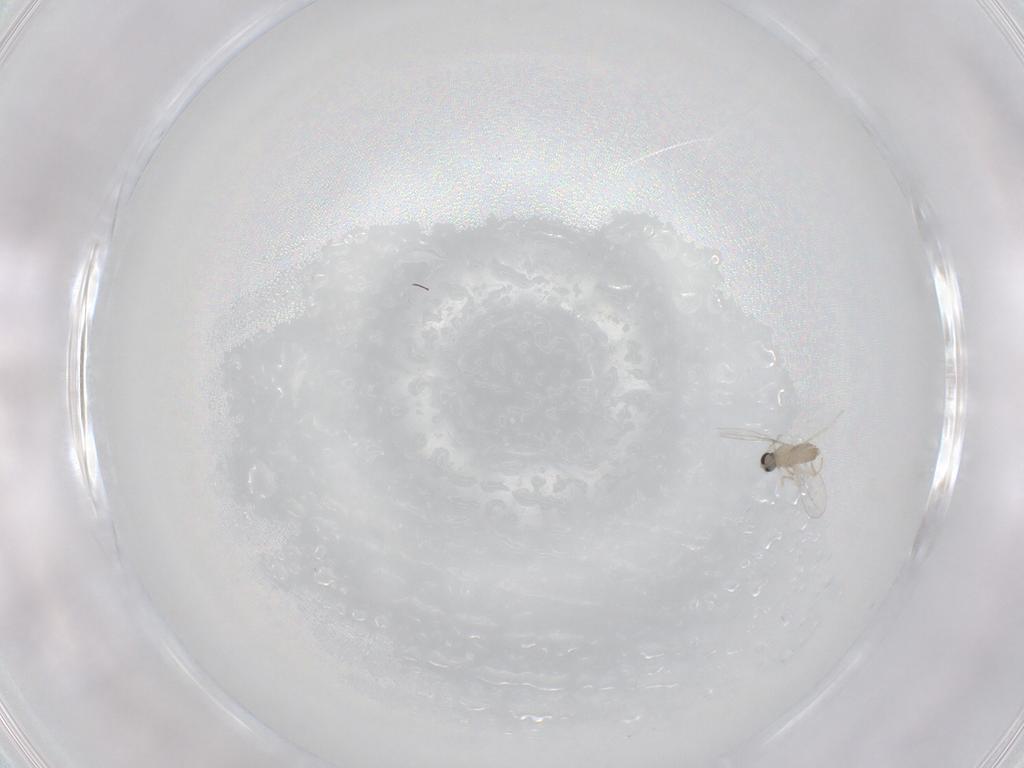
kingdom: Animalia
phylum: Arthropoda
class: Insecta
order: Diptera
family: Cecidomyiidae
